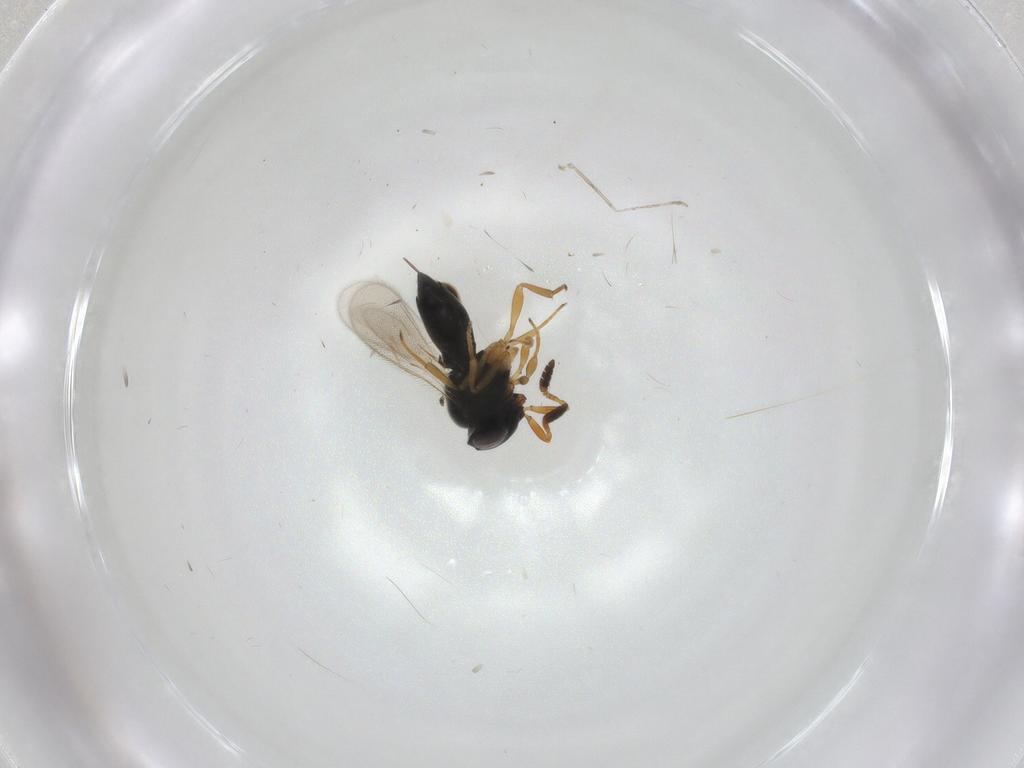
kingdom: Animalia
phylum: Arthropoda
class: Insecta
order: Hymenoptera
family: Scelionidae
